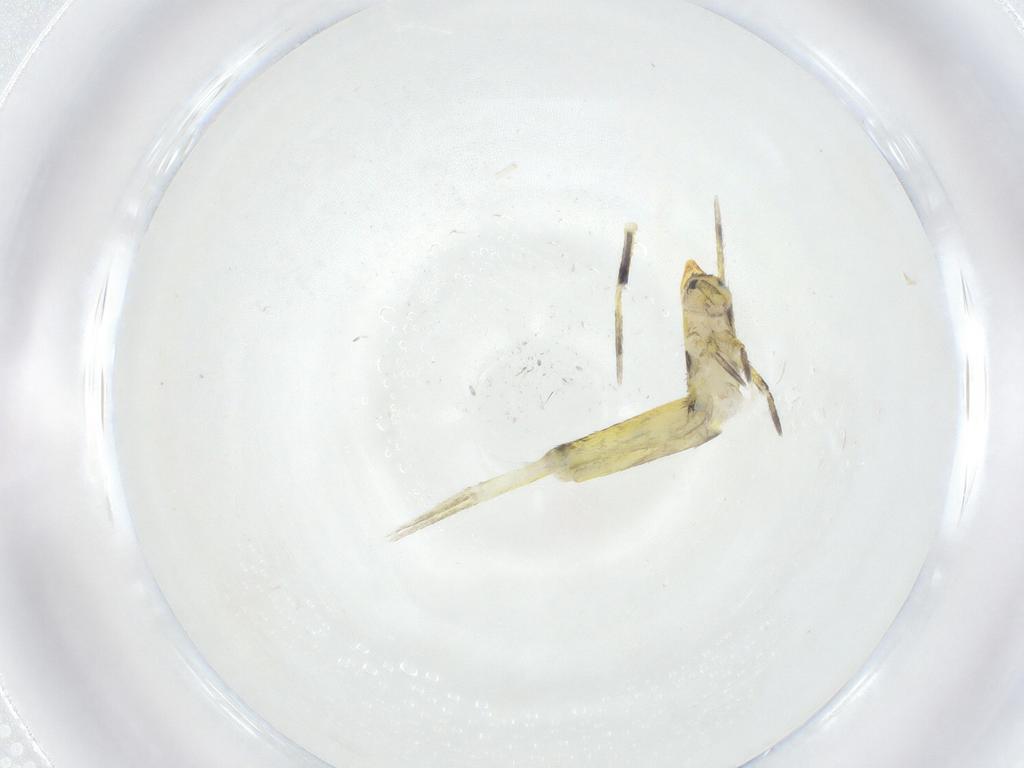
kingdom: Animalia
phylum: Arthropoda
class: Collembola
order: Entomobryomorpha
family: Entomobryidae
